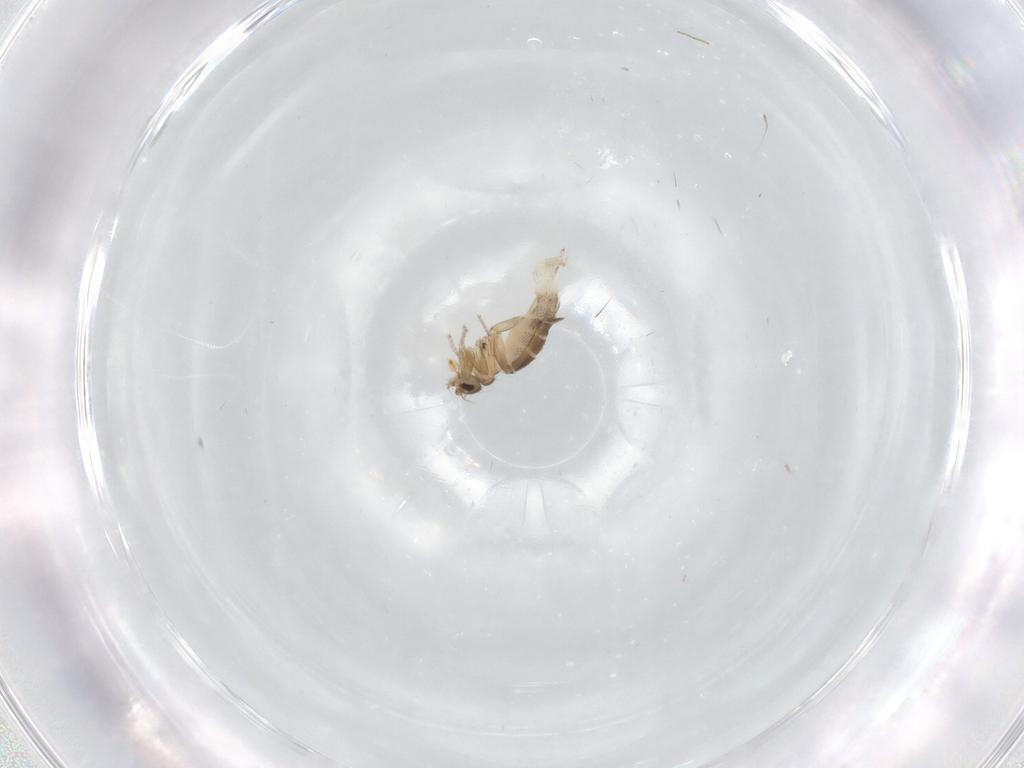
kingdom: Animalia
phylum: Arthropoda
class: Insecta
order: Diptera
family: Phoridae
